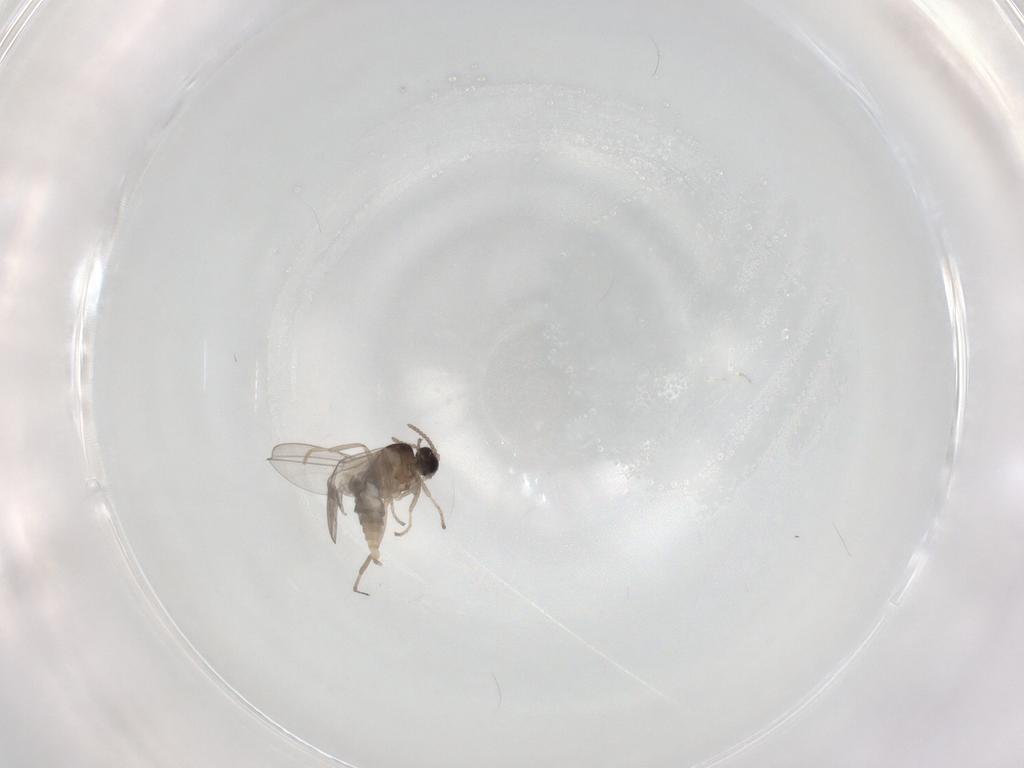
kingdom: Animalia
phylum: Arthropoda
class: Insecta
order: Diptera
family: Cecidomyiidae
